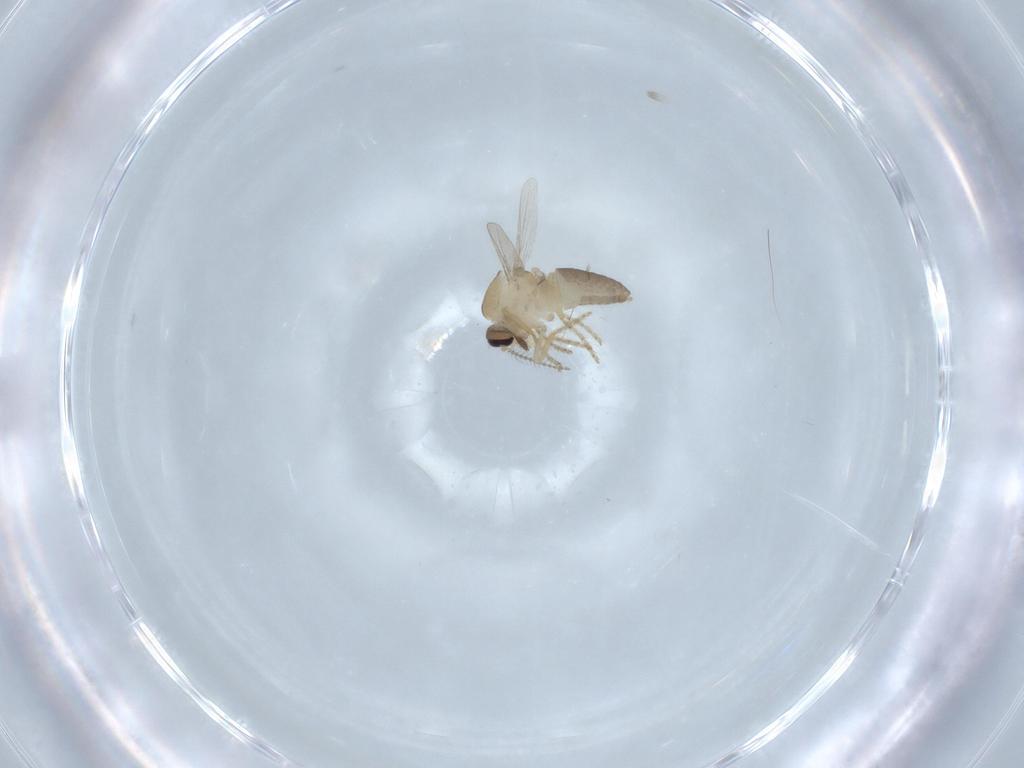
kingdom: Animalia
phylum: Arthropoda
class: Insecta
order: Diptera
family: Ceratopogonidae
